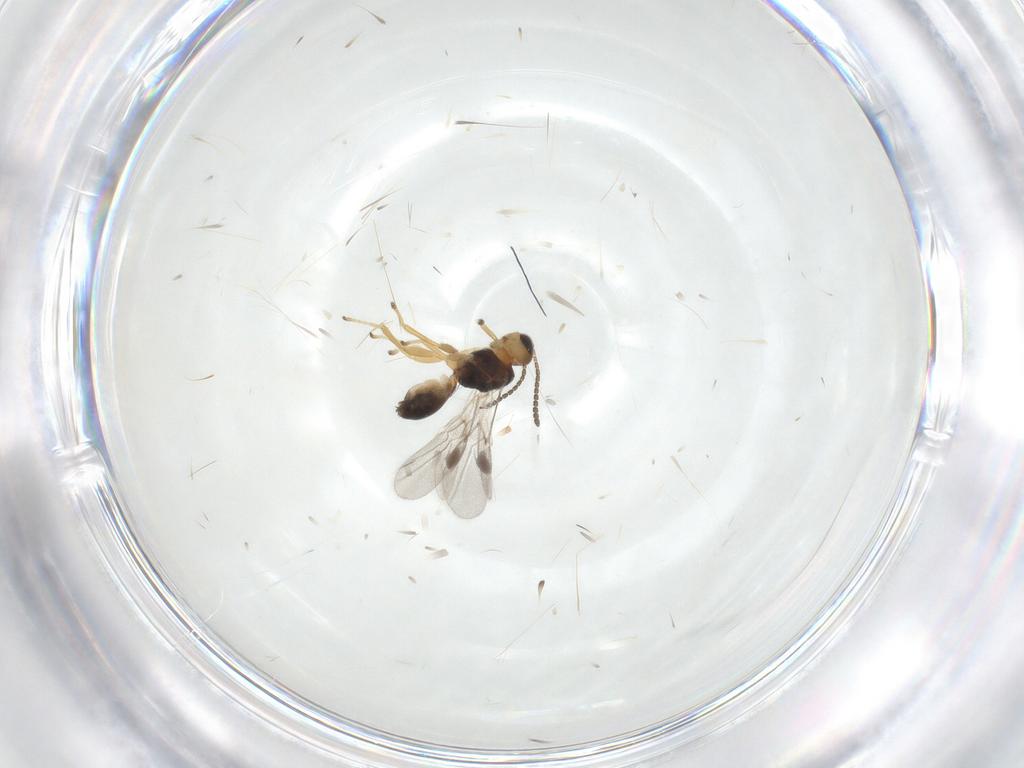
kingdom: Animalia
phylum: Arthropoda
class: Insecta
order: Hymenoptera
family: Braconidae
